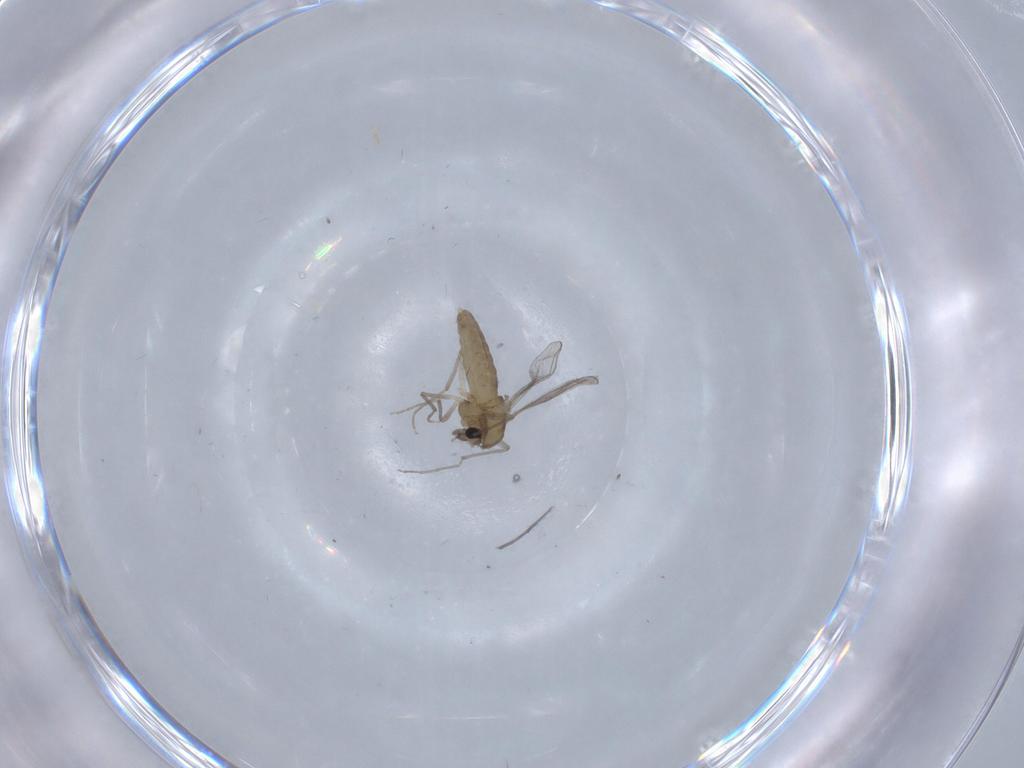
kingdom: Animalia
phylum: Arthropoda
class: Insecta
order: Diptera
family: Chironomidae
